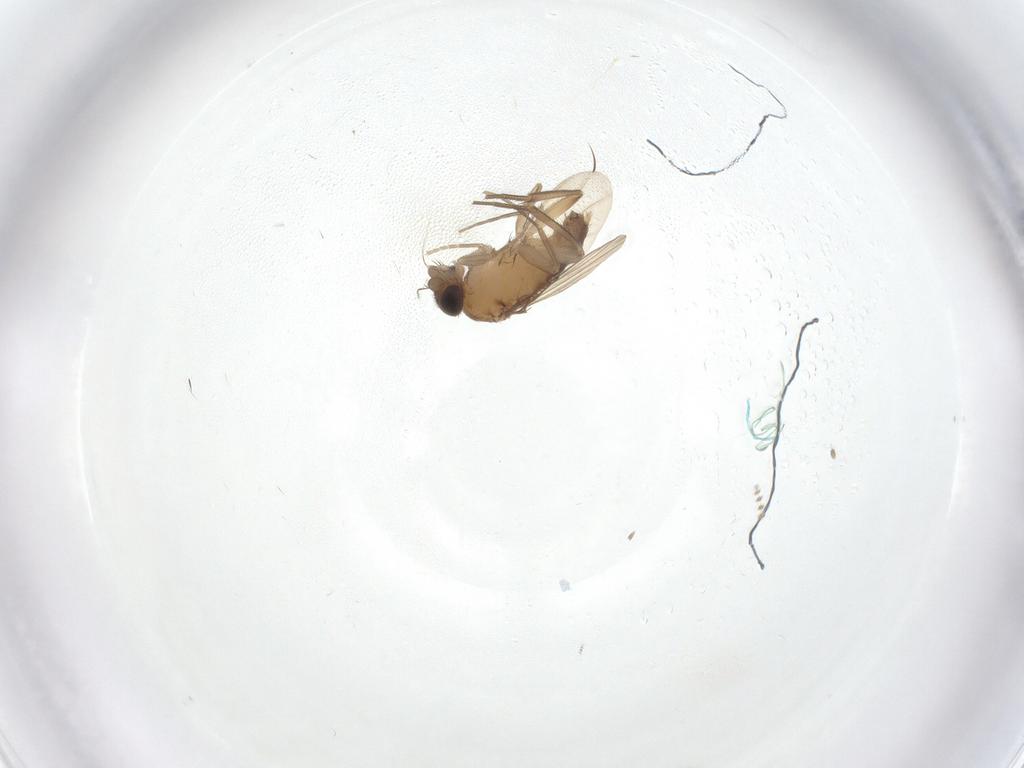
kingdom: Animalia
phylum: Arthropoda
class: Insecta
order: Diptera
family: Phoridae
